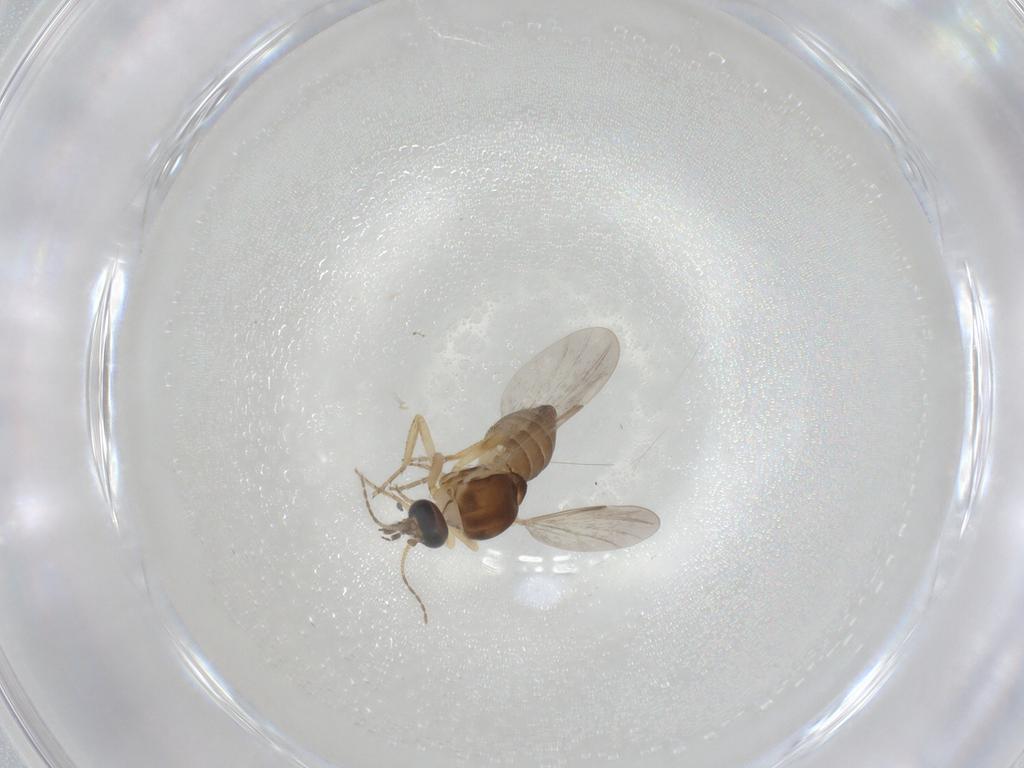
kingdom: Animalia
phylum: Arthropoda
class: Insecta
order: Diptera
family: Ceratopogonidae
